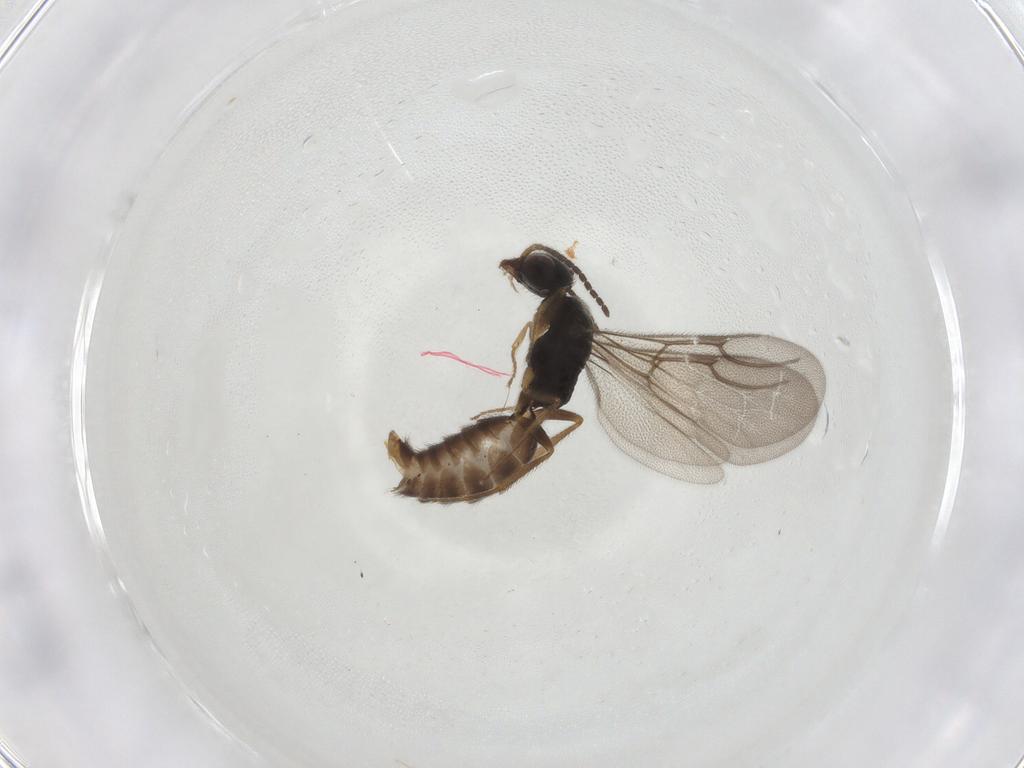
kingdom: Animalia
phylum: Arthropoda
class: Insecta
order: Hymenoptera
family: Bethylidae
